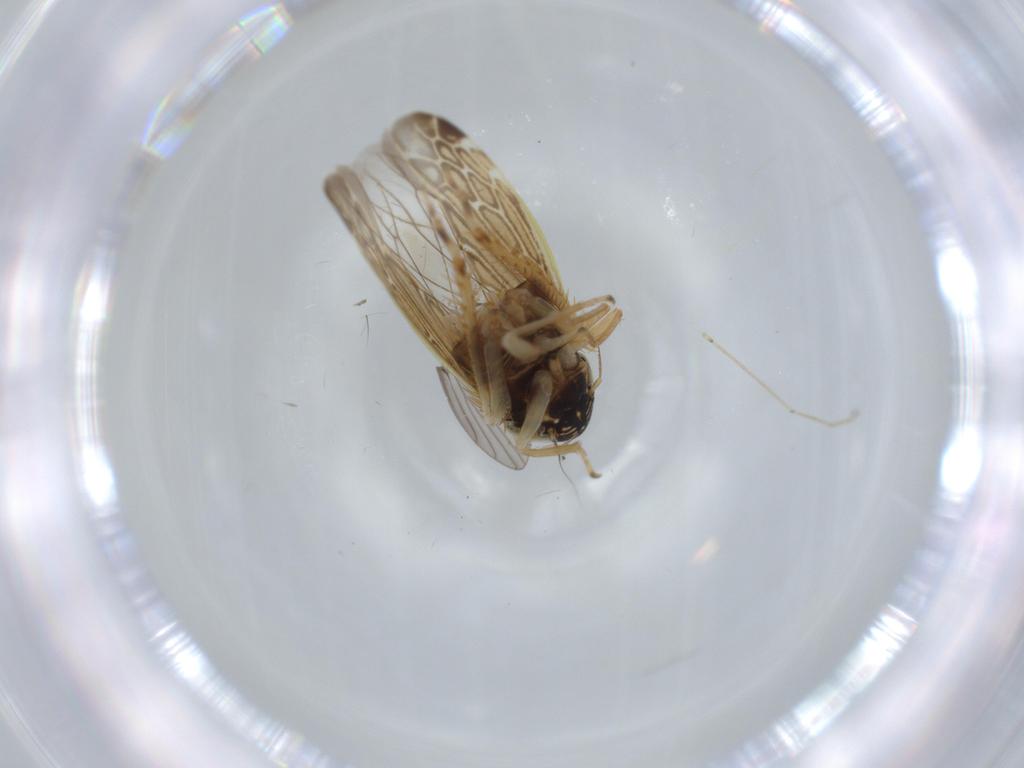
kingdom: Animalia
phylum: Arthropoda
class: Insecta
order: Hemiptera
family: Cicadellidae
